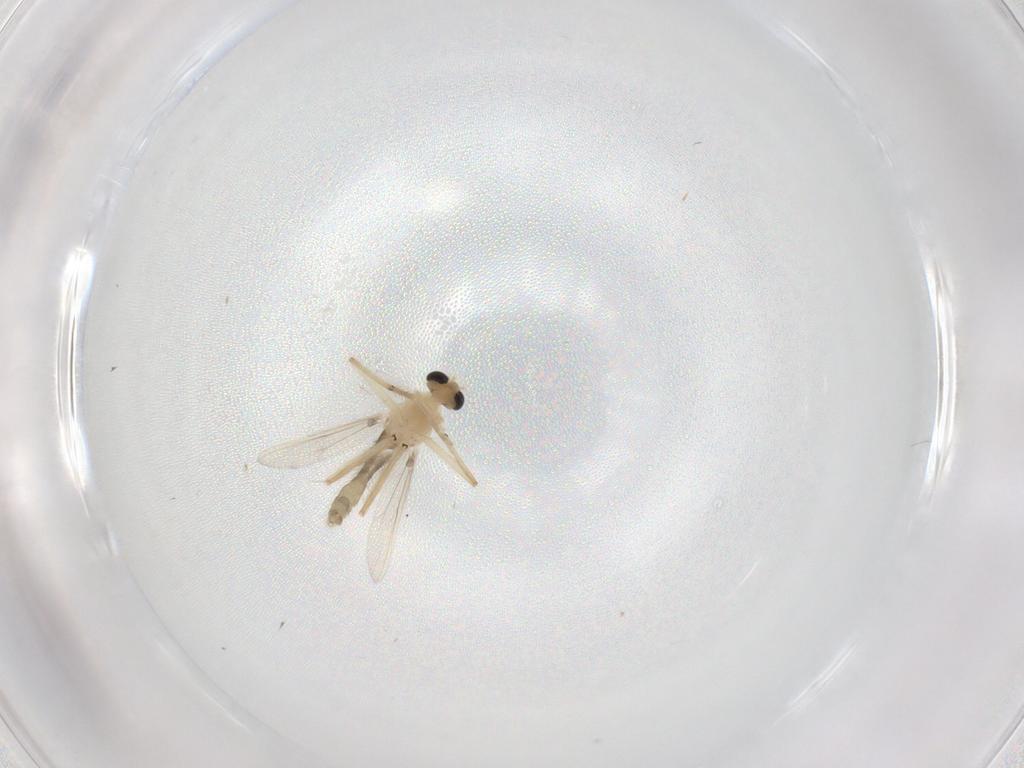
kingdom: Animalia
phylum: Arthropoda
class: Insecta
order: Diptera
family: Chironomidae
